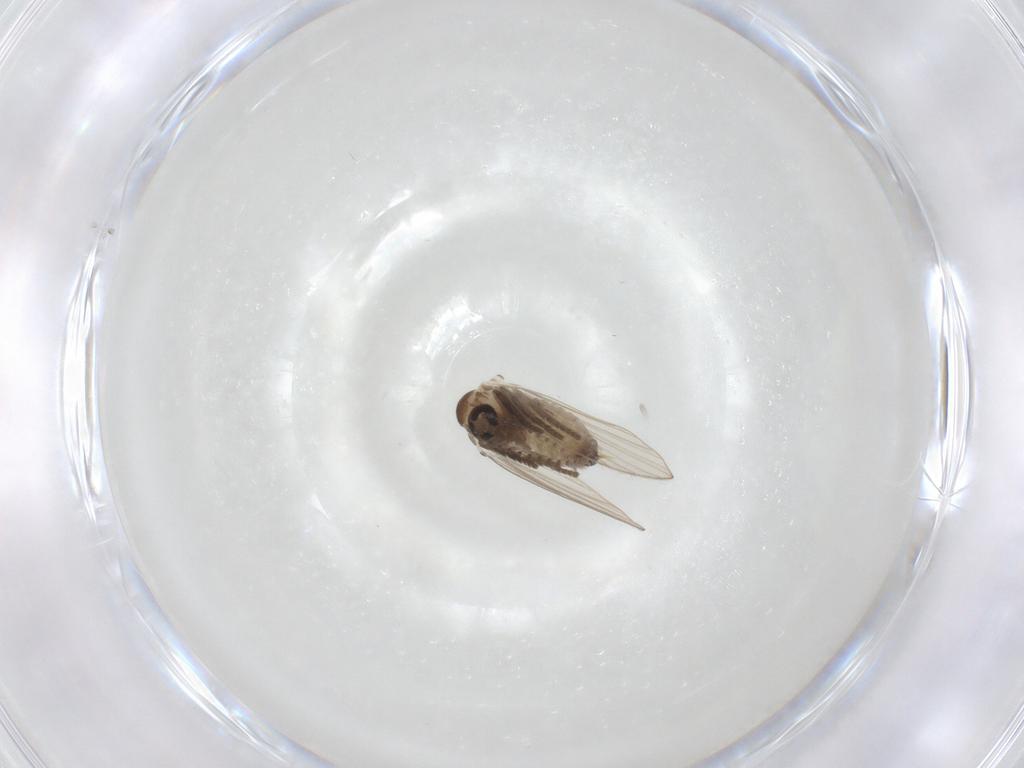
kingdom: Animalia
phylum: Arthropoda
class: Insecta
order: Diptera
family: Psychodidae
